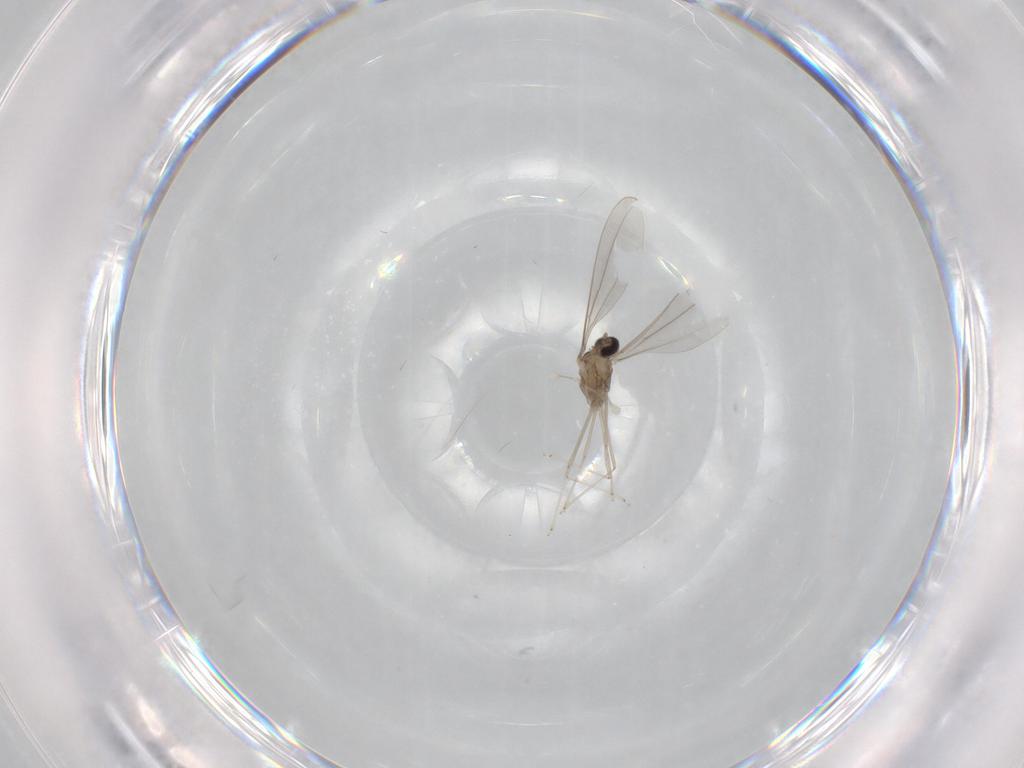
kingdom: Animalia
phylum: Arthropoda
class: Insecta
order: Diptera
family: Cecidomyiidae
